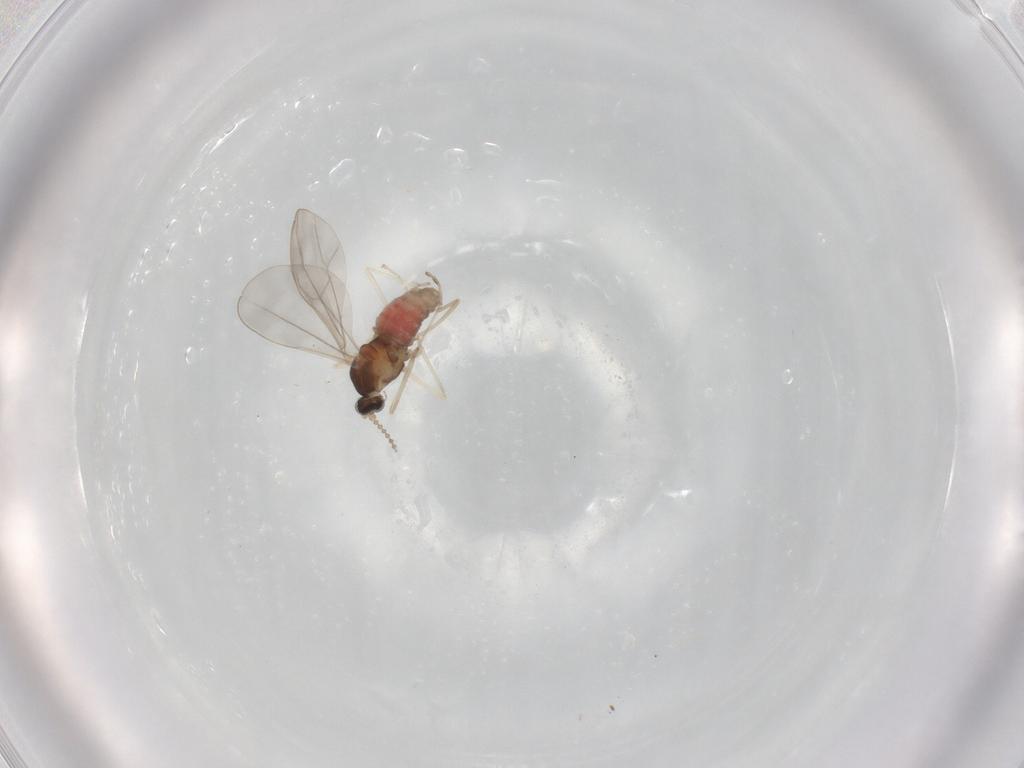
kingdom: Animalia
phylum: Arthropoda
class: Insecta
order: Diptera
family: Cecidomyiidae
